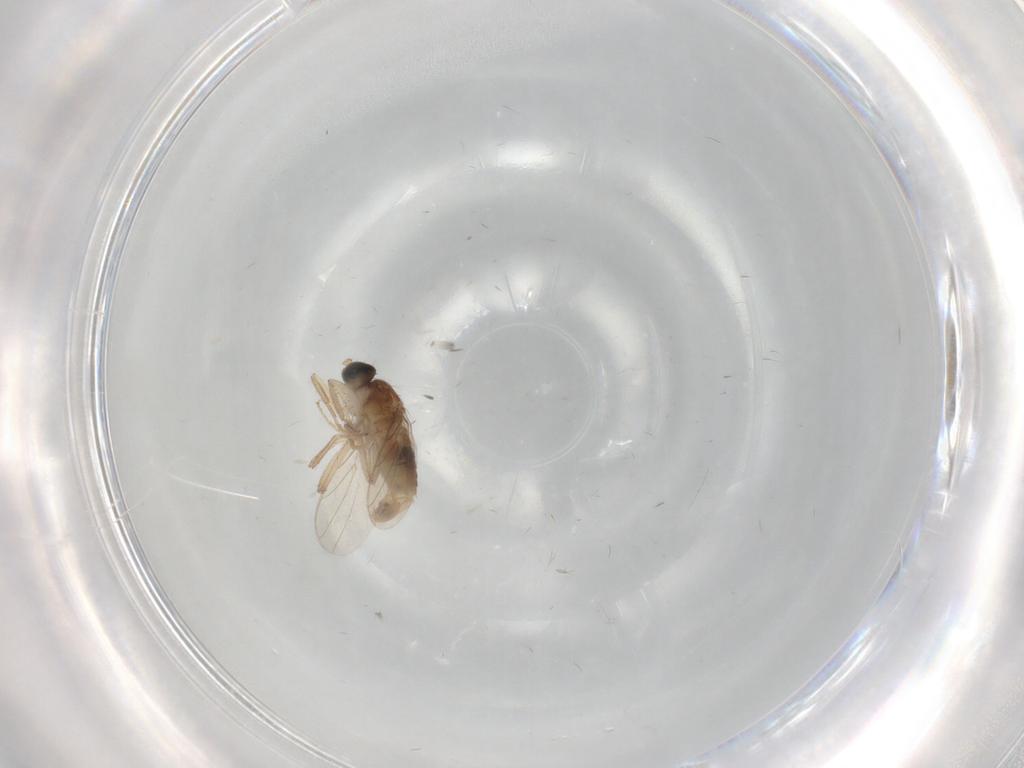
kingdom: Animalia
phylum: Arthropoda
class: Insecta
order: Diptera
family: Hybotidae
